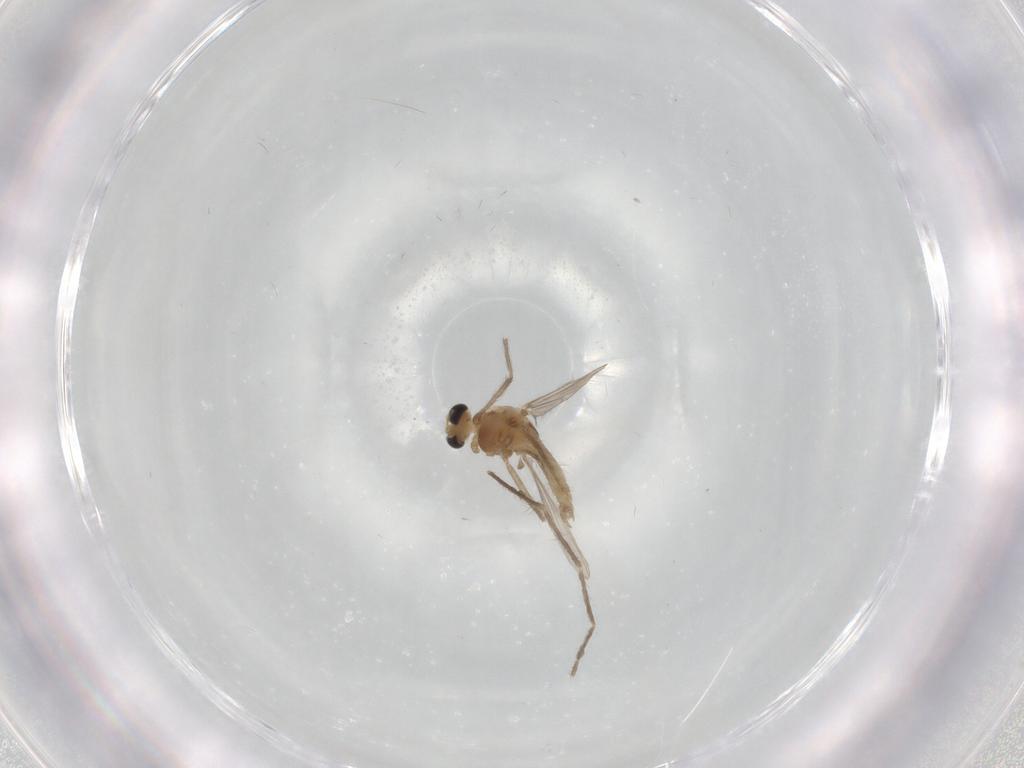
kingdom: Animalia
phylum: Arthropoda
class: Insecta
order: Diptera
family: Chironomidae
